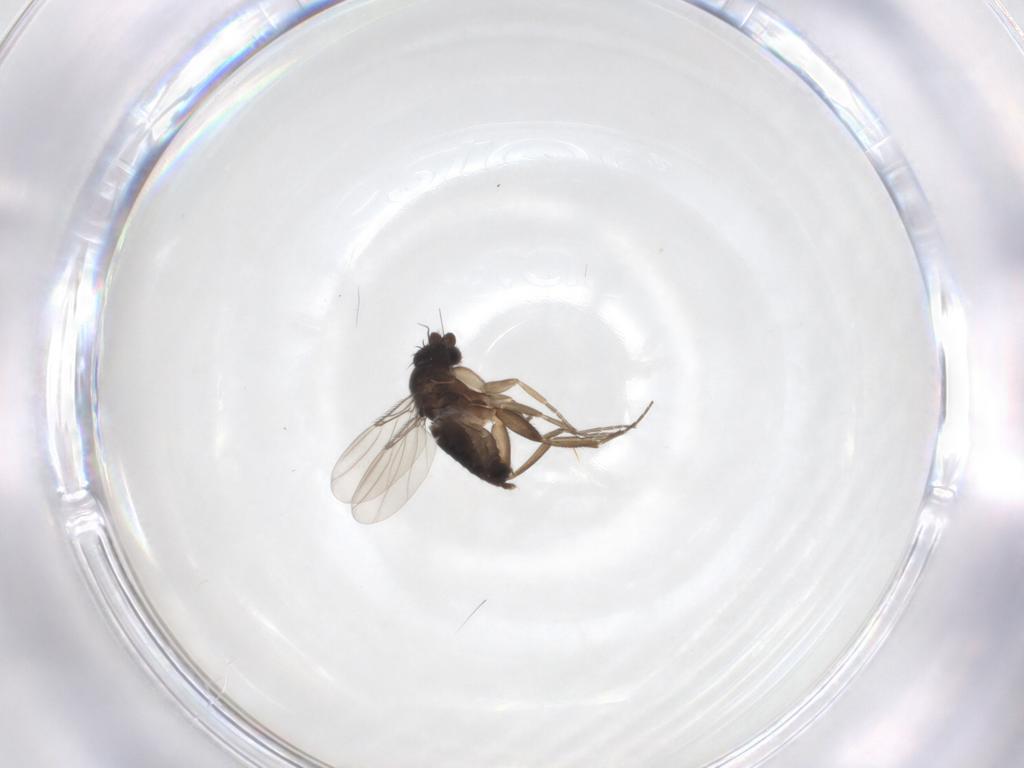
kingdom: Animalia
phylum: Arthropoda
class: Insecta
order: Diptera
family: Phoridae
